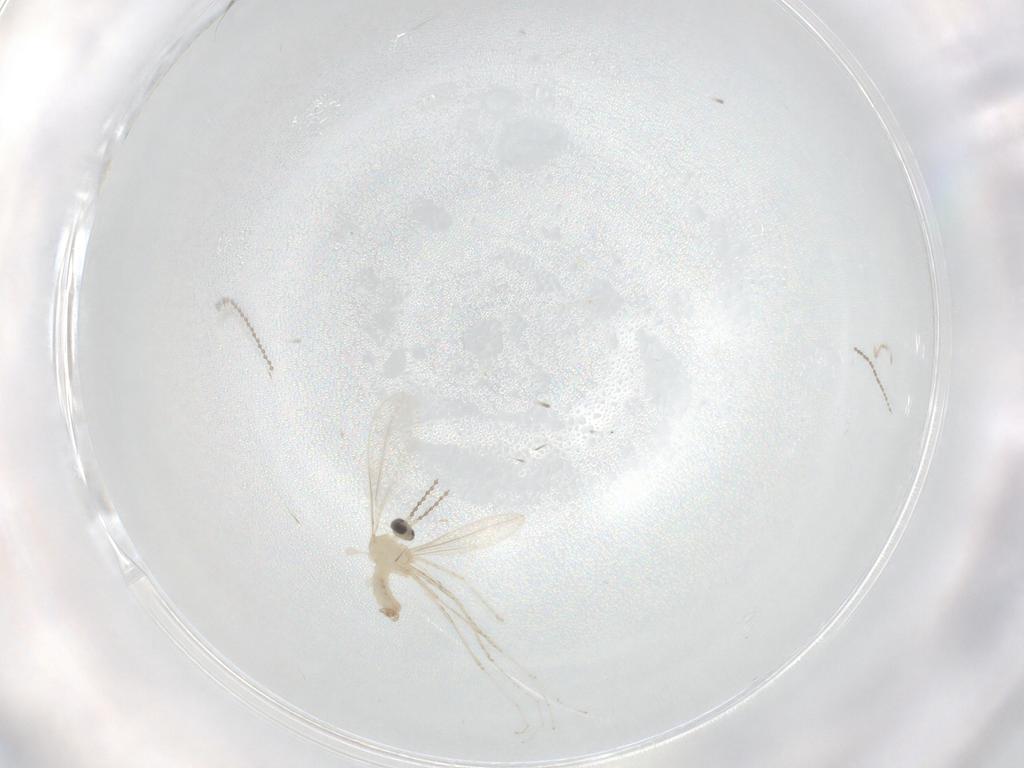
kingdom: Animalia
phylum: Arthropoda
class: Insecta
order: Diptera
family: Cecidomyiidae
